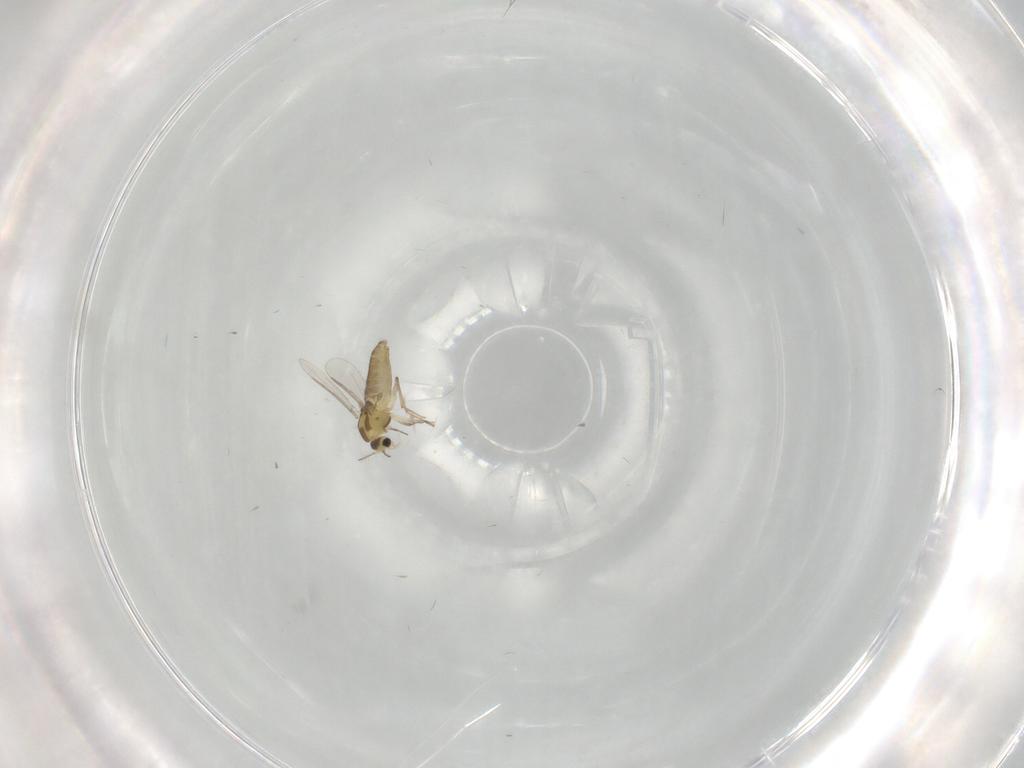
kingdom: Animalia
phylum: Arthropoda
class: Insecta
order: Diptera
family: Chironomidae
